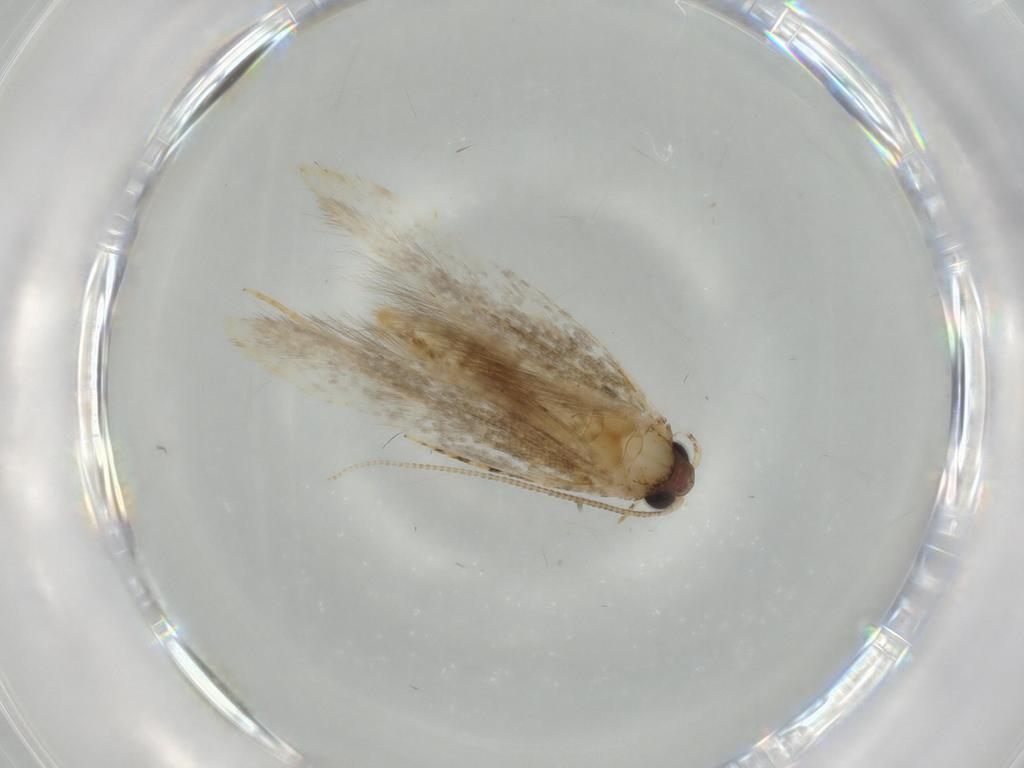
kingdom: Animalia
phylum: Arthropoda
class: Insecta
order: Lepidoptera
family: Tineidae
